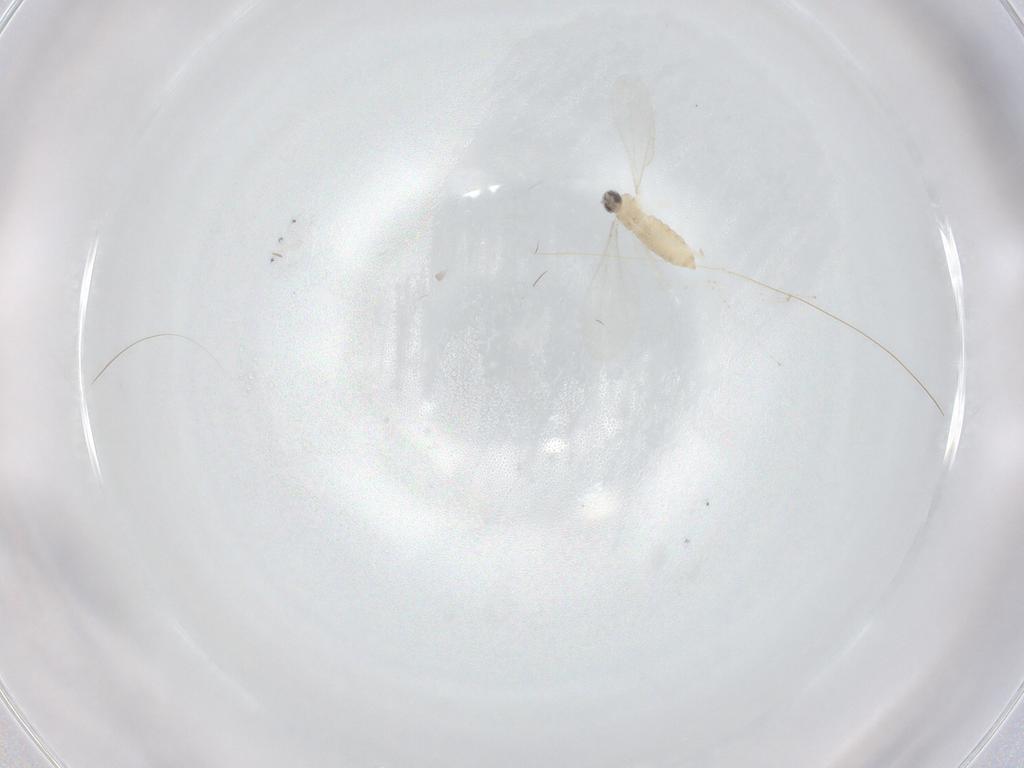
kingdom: Animalia
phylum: Arthropoda
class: Insecta
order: Diptera
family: Cecidomyiidae
